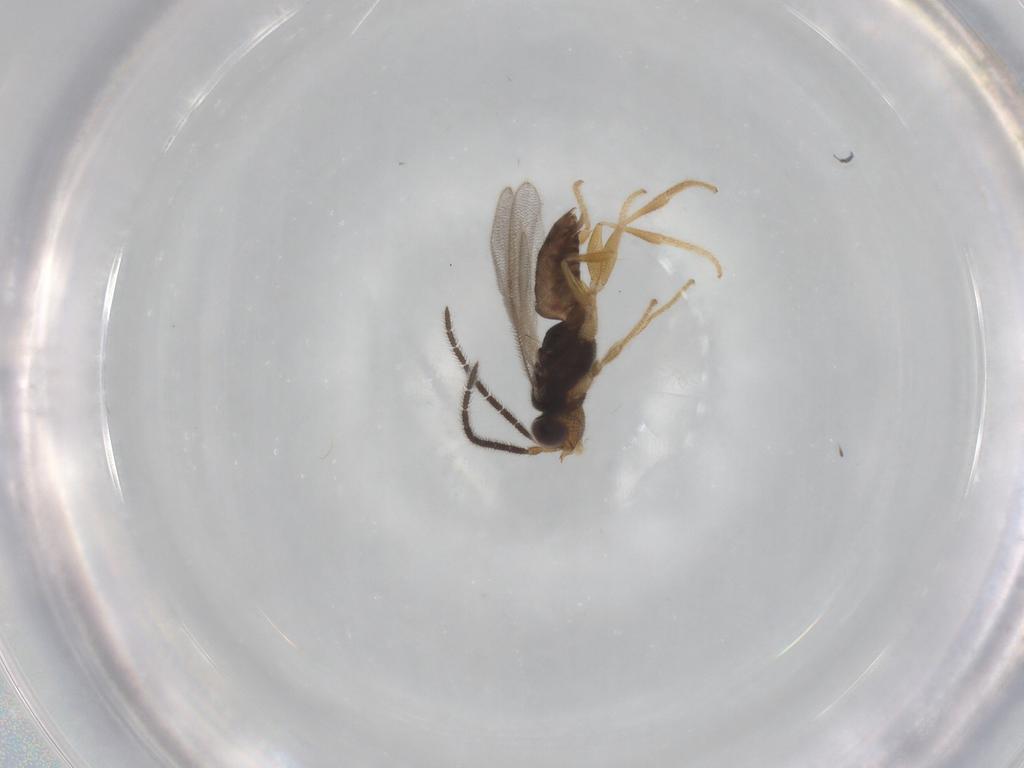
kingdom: Animalia
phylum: Arthropoda
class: Insecta
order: Hymenoptera
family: Dryinidae
